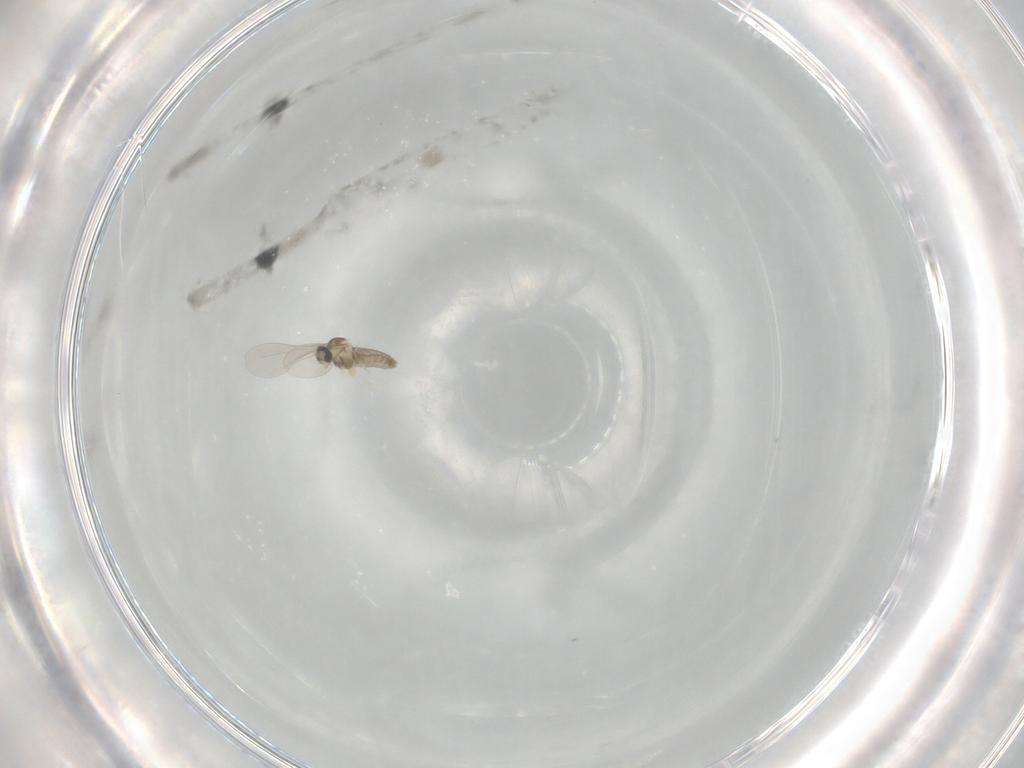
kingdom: Animalia
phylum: Arthropoda
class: Insecta
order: Diptera
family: Cecidomyiidae
